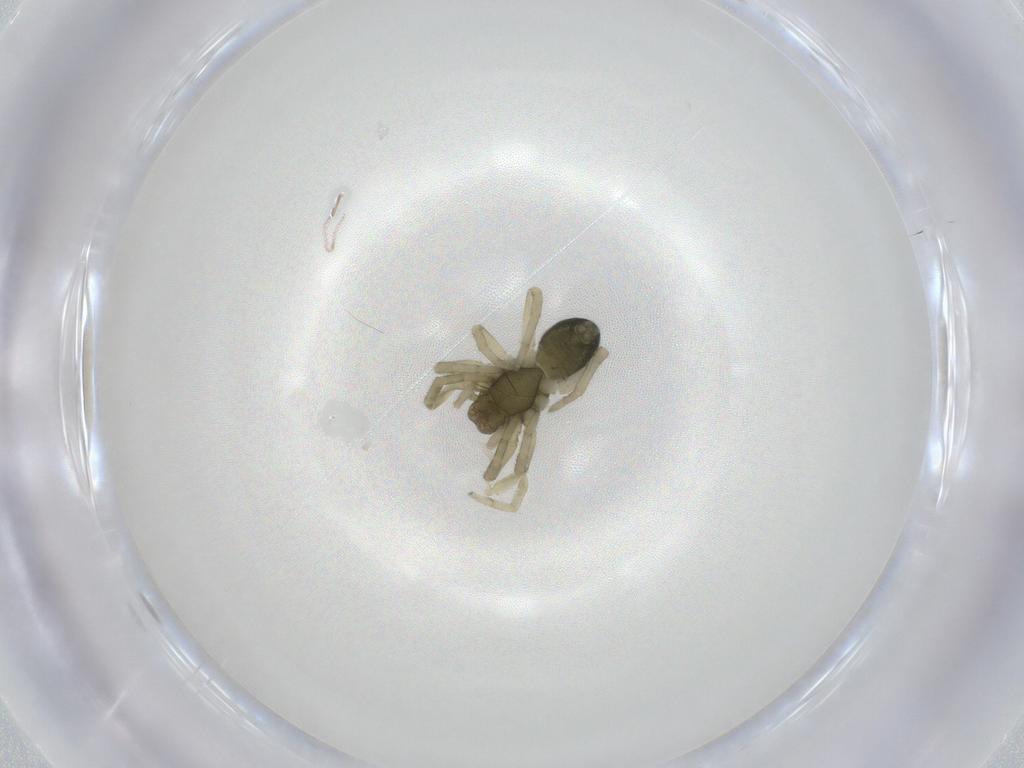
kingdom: Animalia
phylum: Arthropoda
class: Arachnida
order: Araneae
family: Trachelidae
